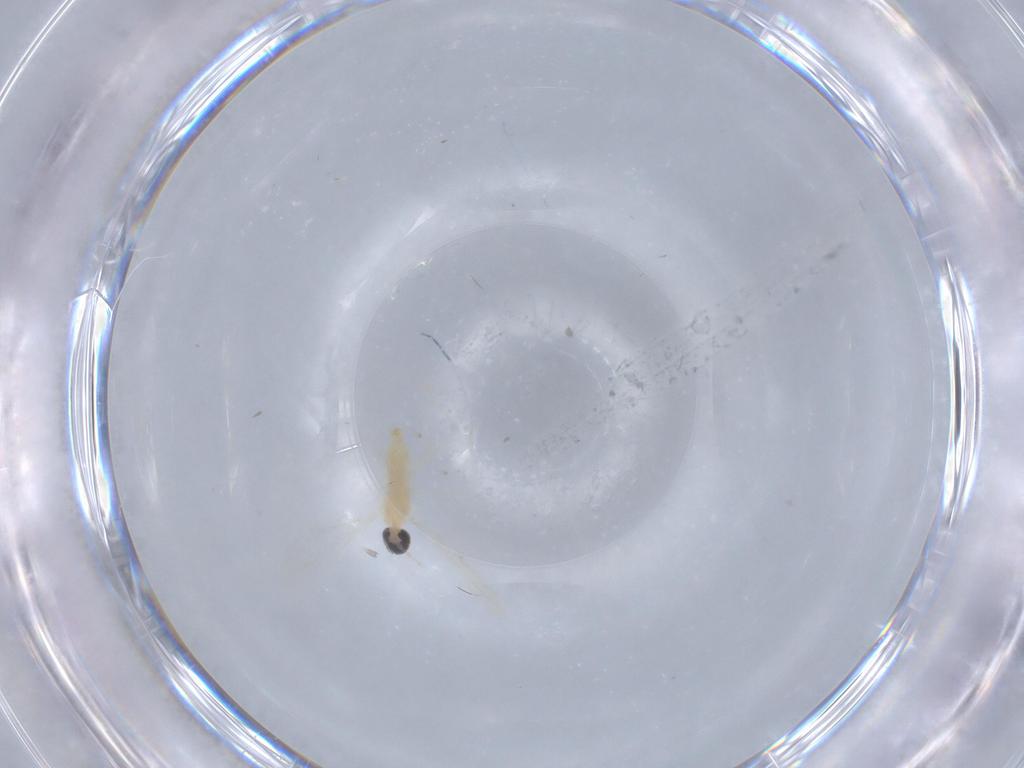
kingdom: Animalia
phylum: Arthropoda
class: Insecta
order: Diptera
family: Cecidomyiidae
